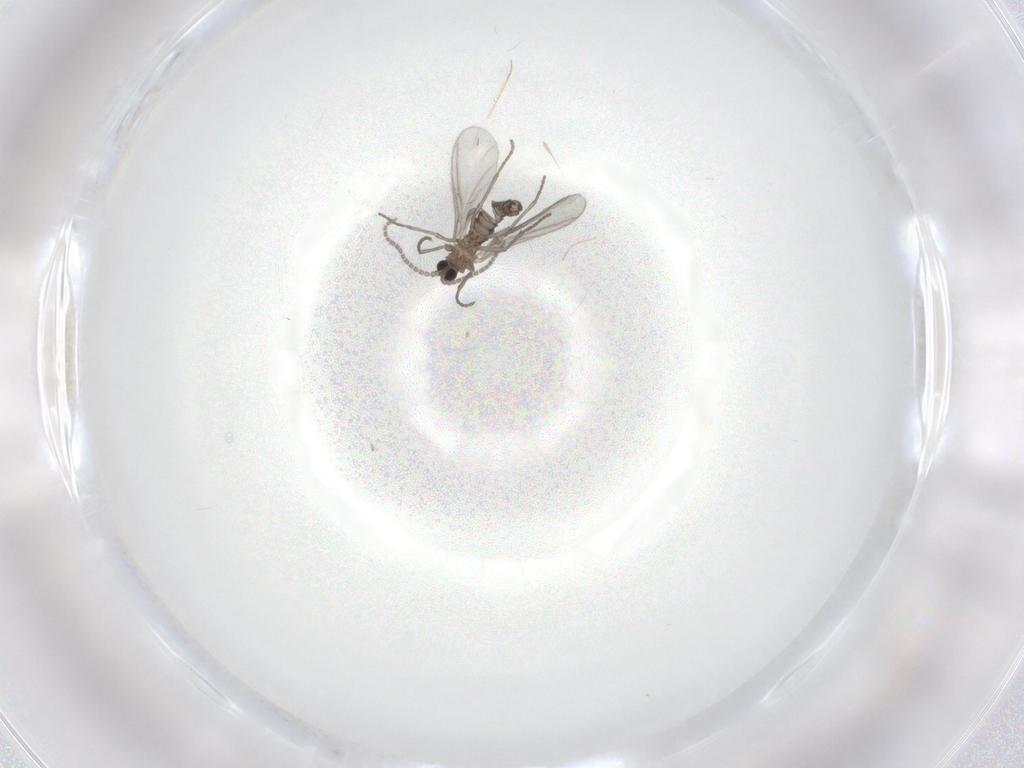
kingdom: Animalia
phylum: Arthropoda
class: Insecta
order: Diptera
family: Sciaridae
